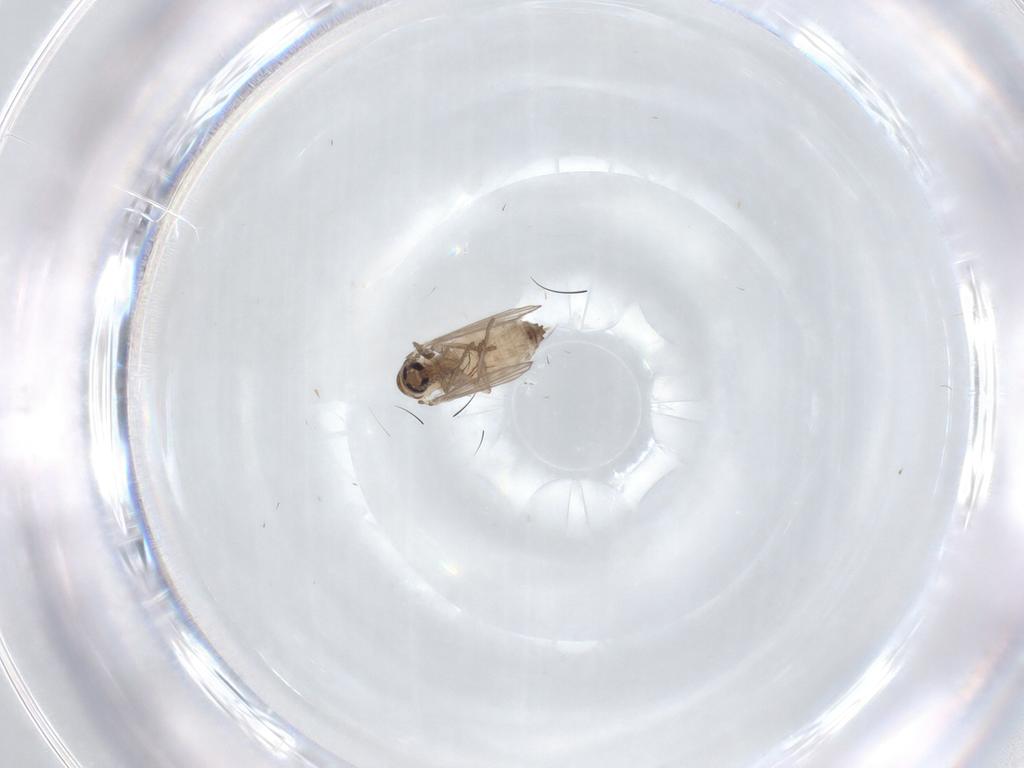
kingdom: Animalia
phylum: Arthropoda
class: Insecta
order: Diptera
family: Psychodidae
